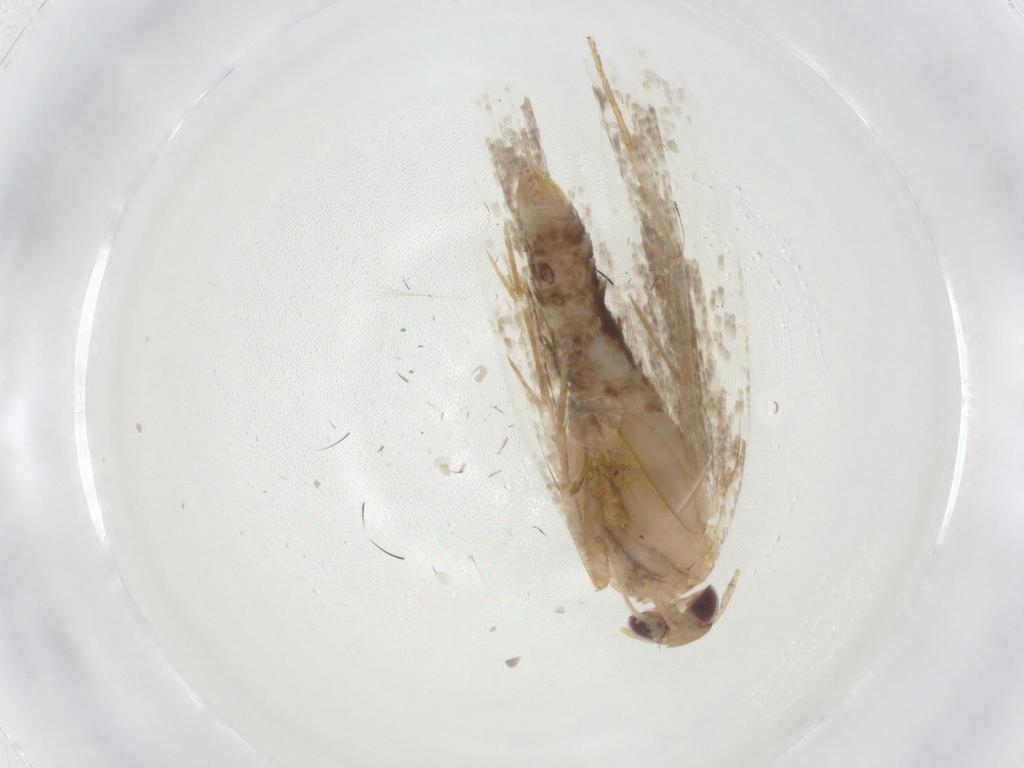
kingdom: Animalia
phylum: Arthropoda
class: Insecta
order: Lepidoptera
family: Gelechiidae
